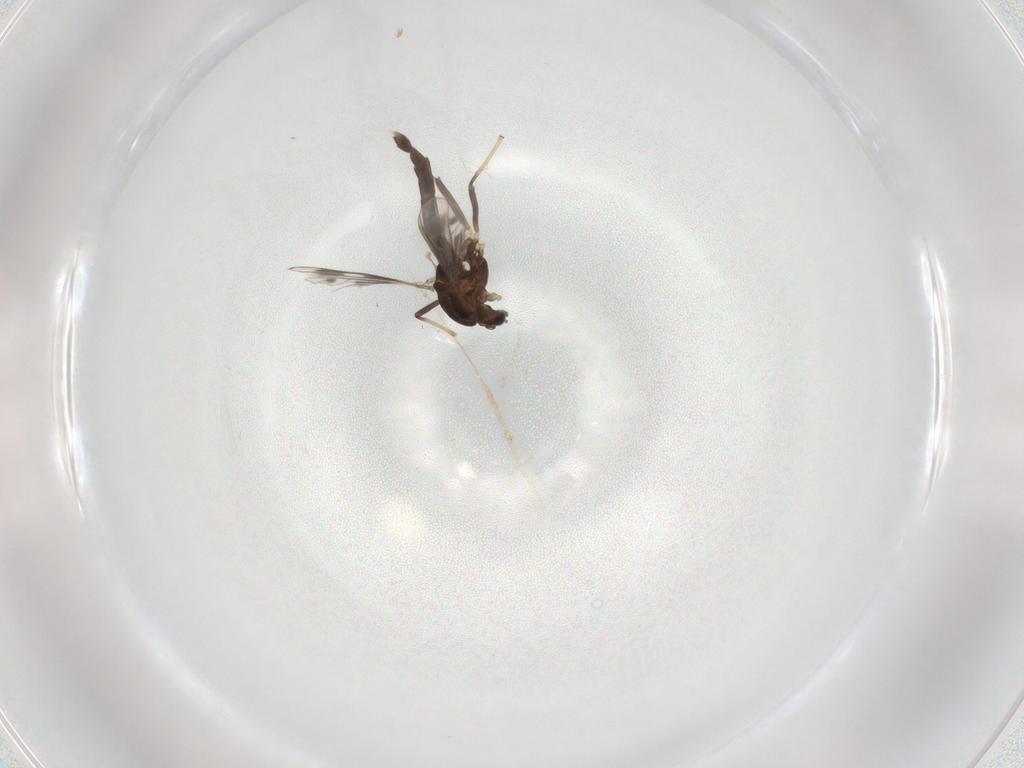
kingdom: Animalia
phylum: Arthropoda
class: Insecta
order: Diptera
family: Chironomidae
